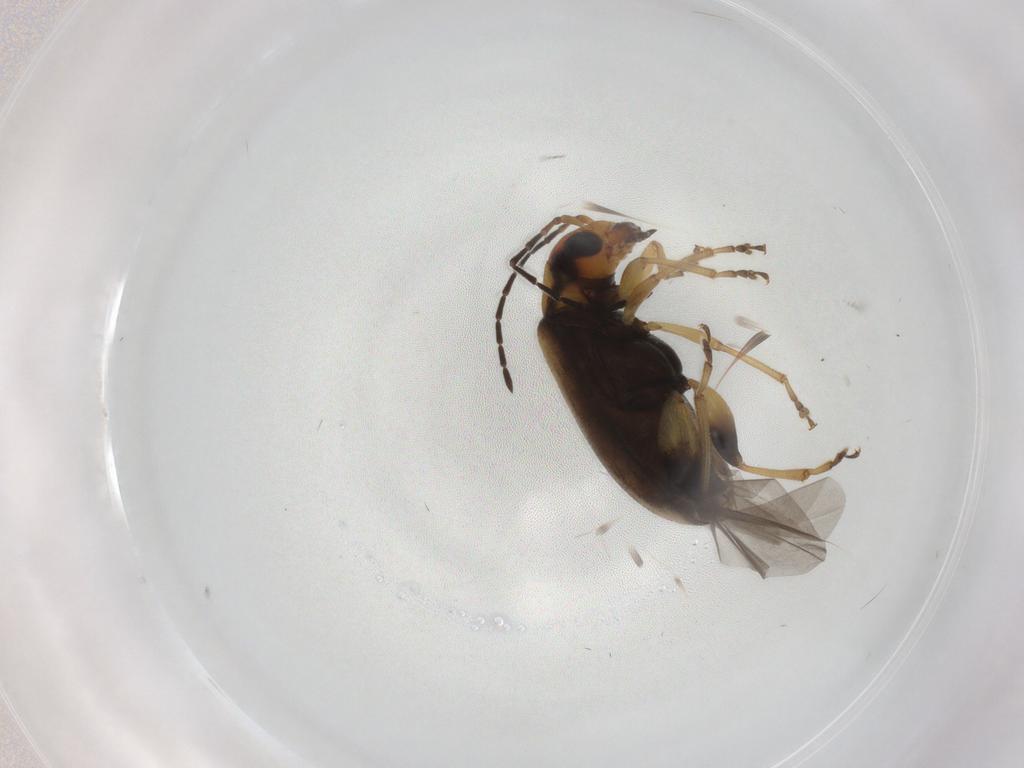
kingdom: Animalia
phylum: Arthropoda
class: Insecta
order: Coleoptera
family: Chrysomelidae
